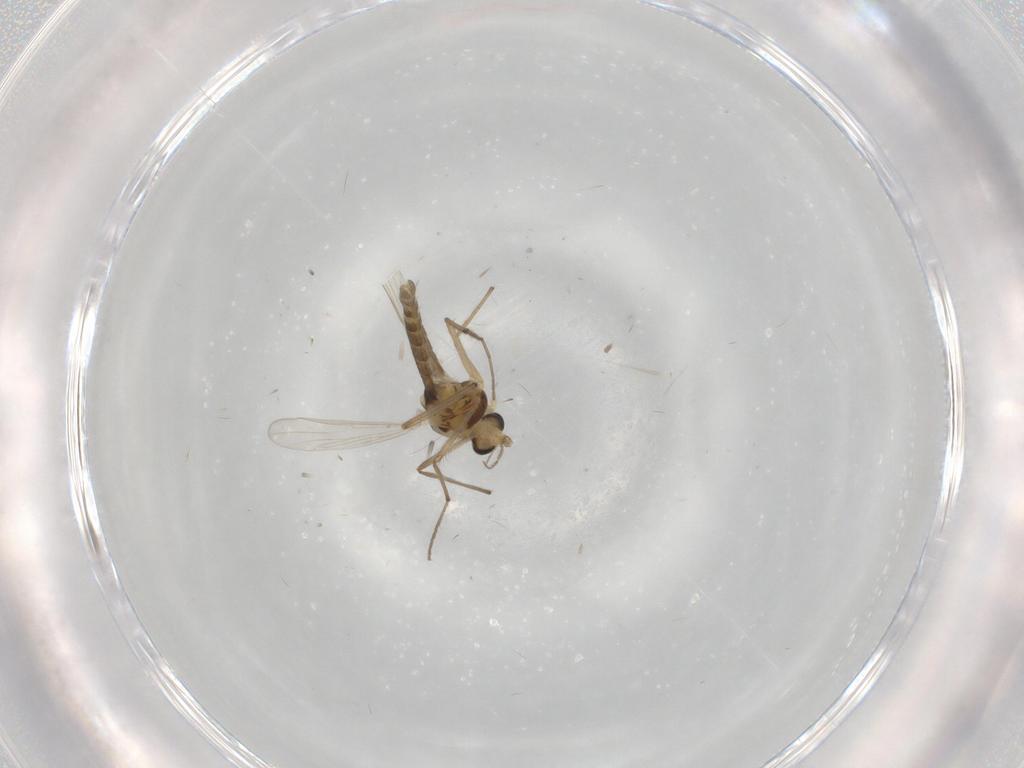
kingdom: Animalia
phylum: Arthropoda
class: Insecta
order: Diptera
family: Chironomidae
